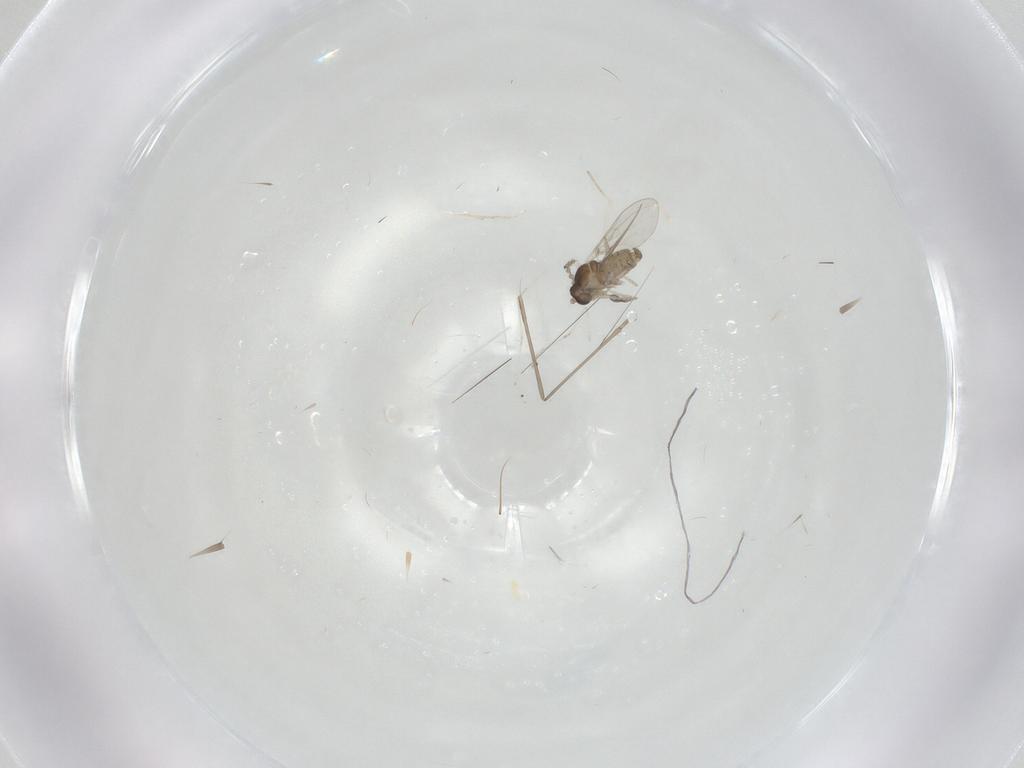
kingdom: Animalia
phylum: Arthropoda
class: Insecta
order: Diptera
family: Cecidomyiidae
